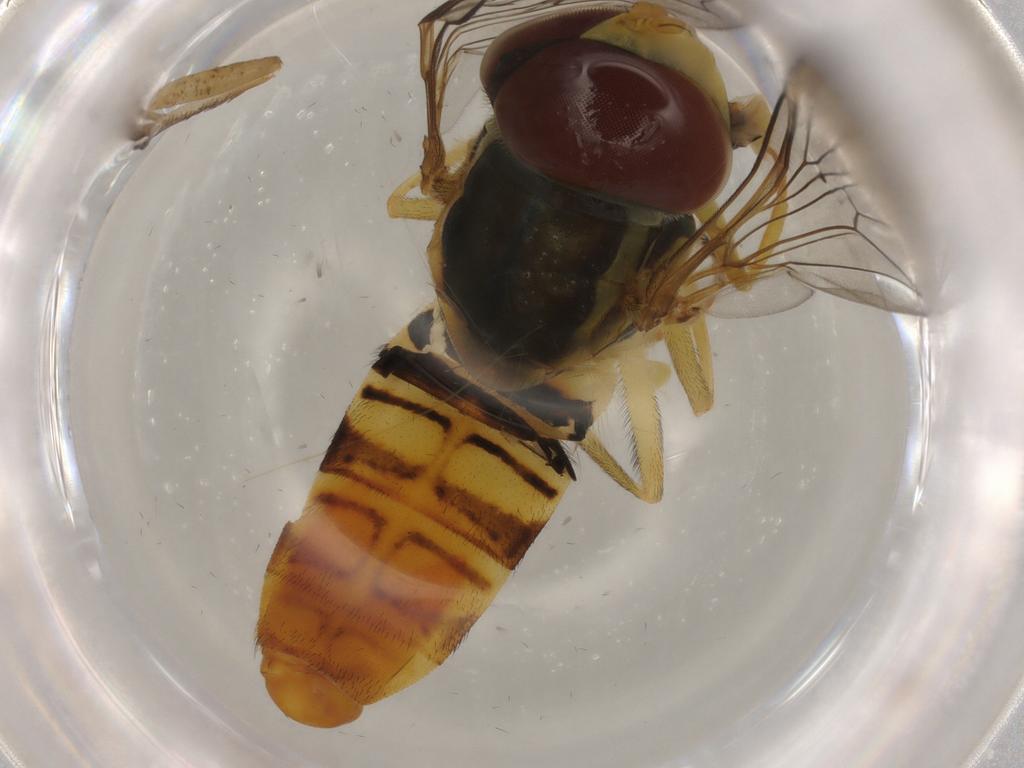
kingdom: Animalia
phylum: Arthropoda
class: Insecta
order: Diptera
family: Syrphidae
